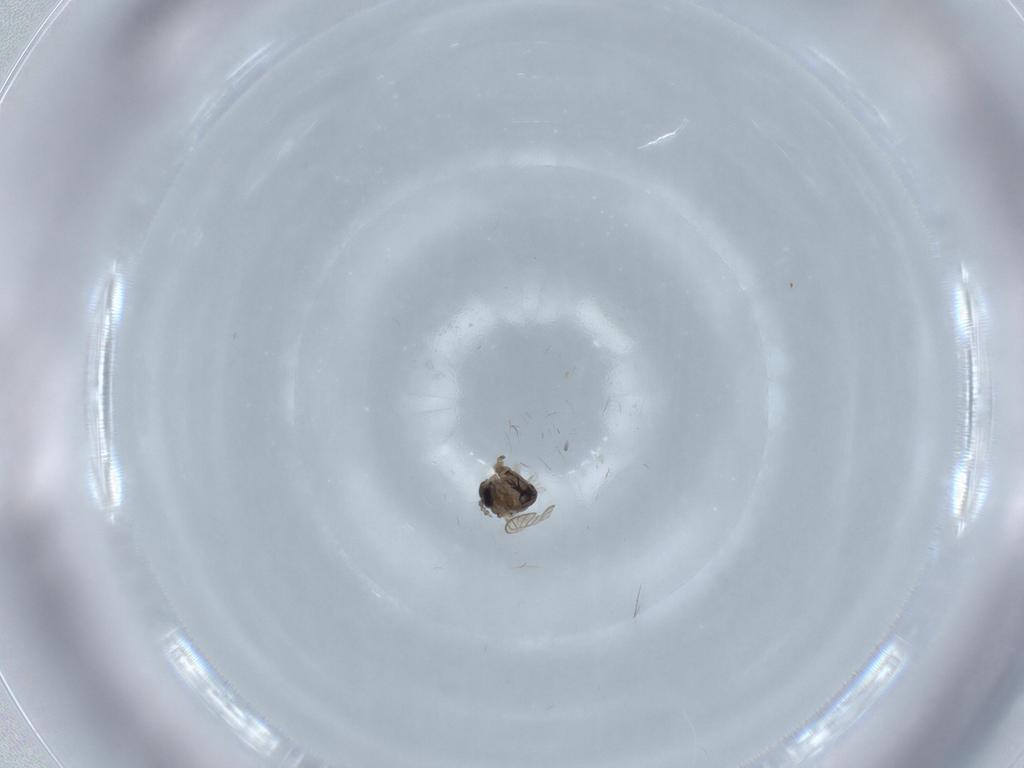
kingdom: Animalia
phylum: Arthropoda
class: Insecta
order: Diptera
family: Psychodidae
